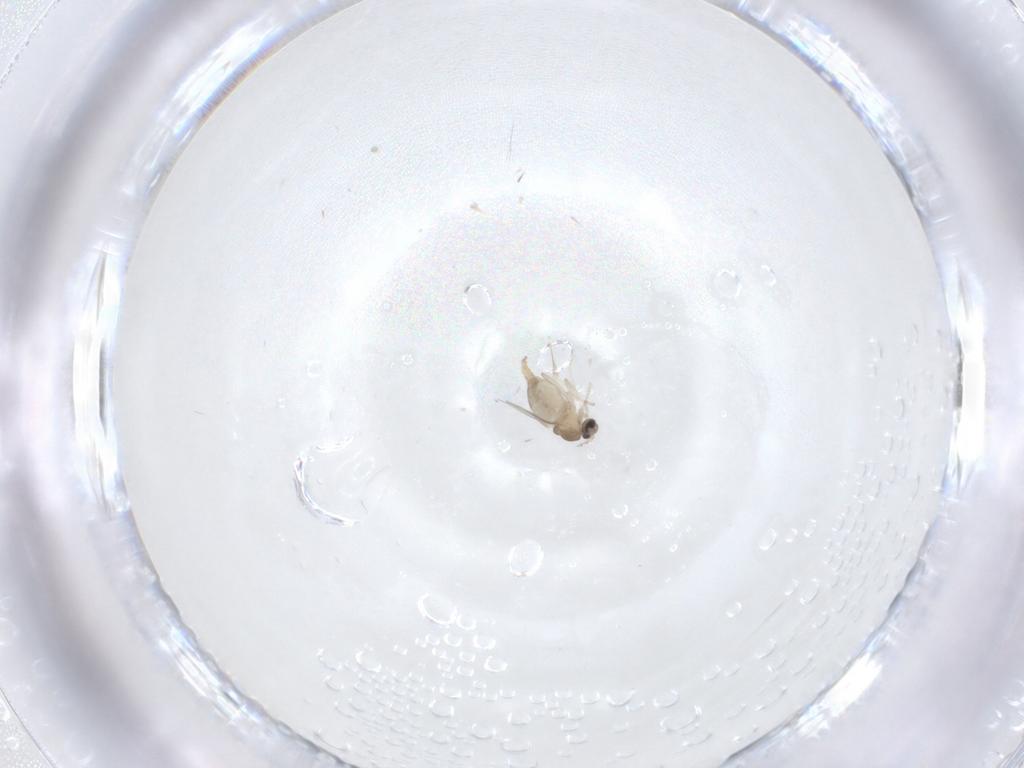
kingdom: Animalia
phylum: Arthropoda
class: Insecta
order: Diptera
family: Cecidomyiidae
